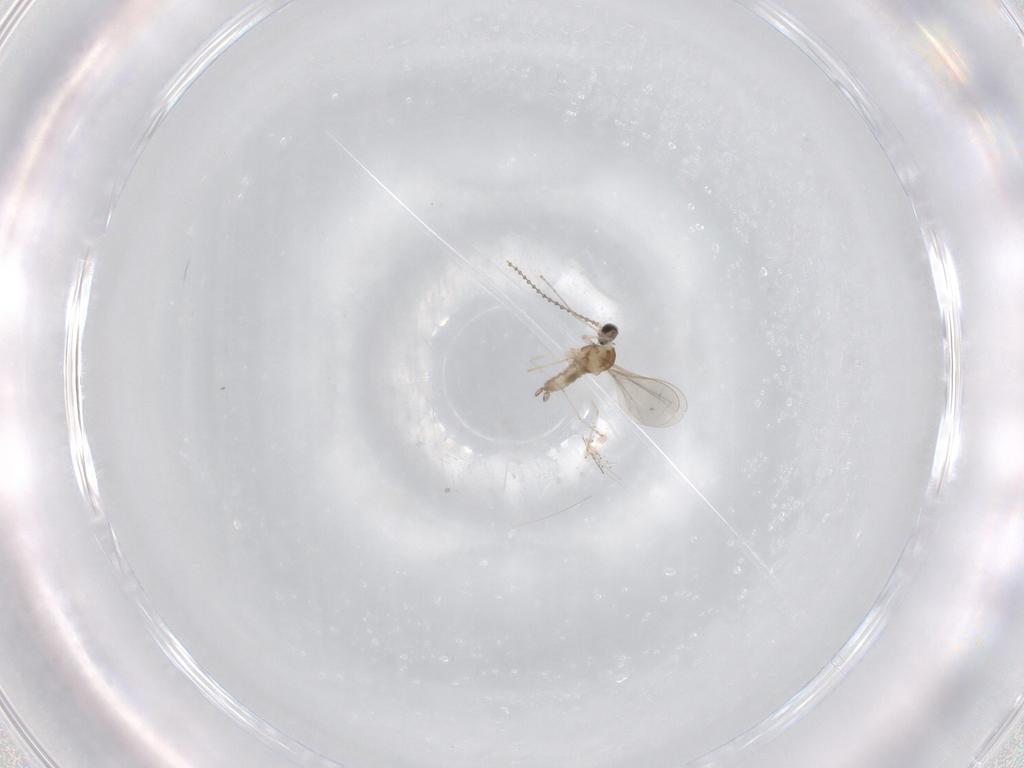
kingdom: Animalia
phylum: Arthropoda
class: Insecta
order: Diptera
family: Cecidomyiidae
